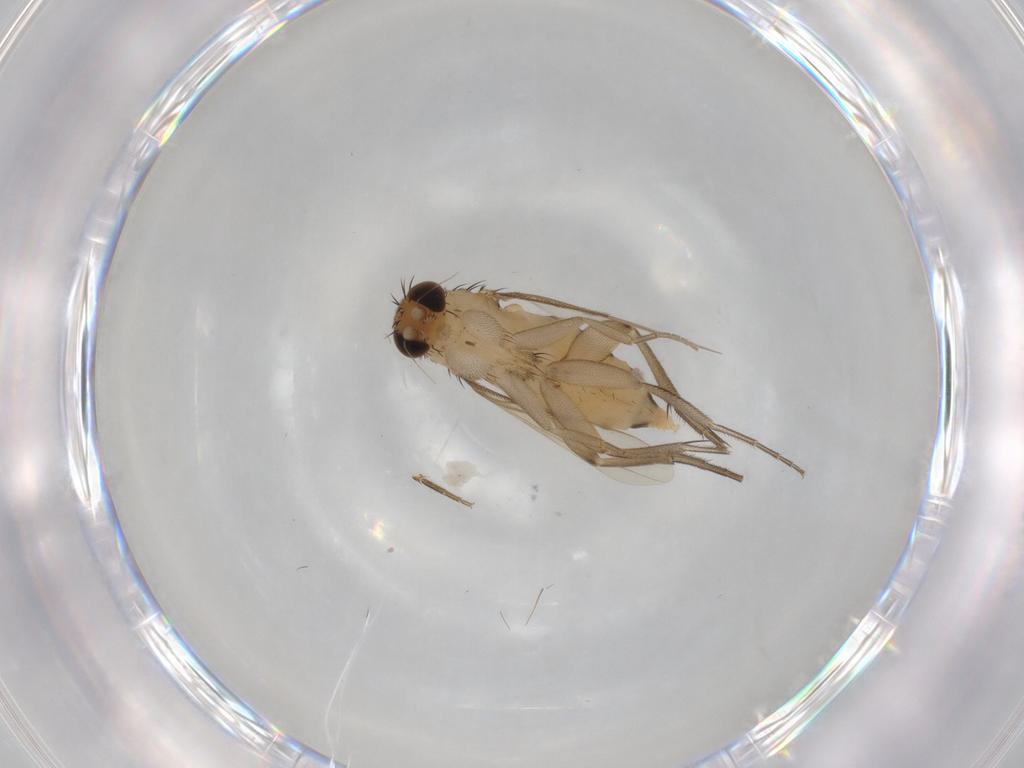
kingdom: Animalia
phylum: Arthropoda
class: Insecta
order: Diptera
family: Phoridae
